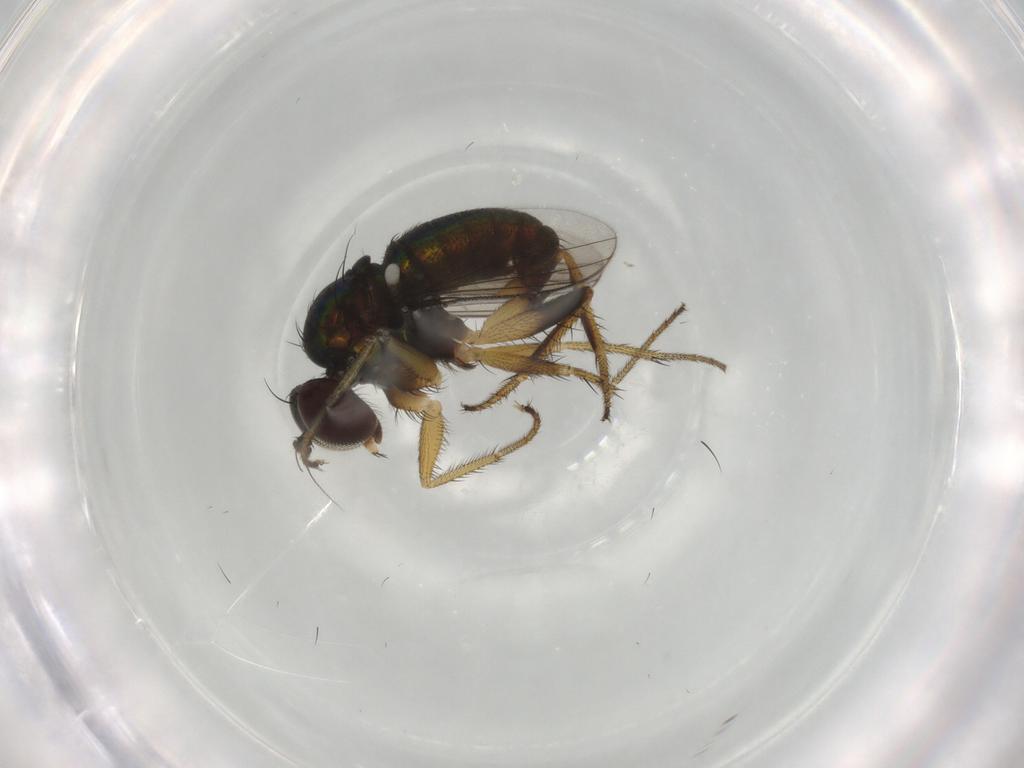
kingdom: Animalia
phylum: Arthropoda
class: Insecta
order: Diptera
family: Dolichopodidae
